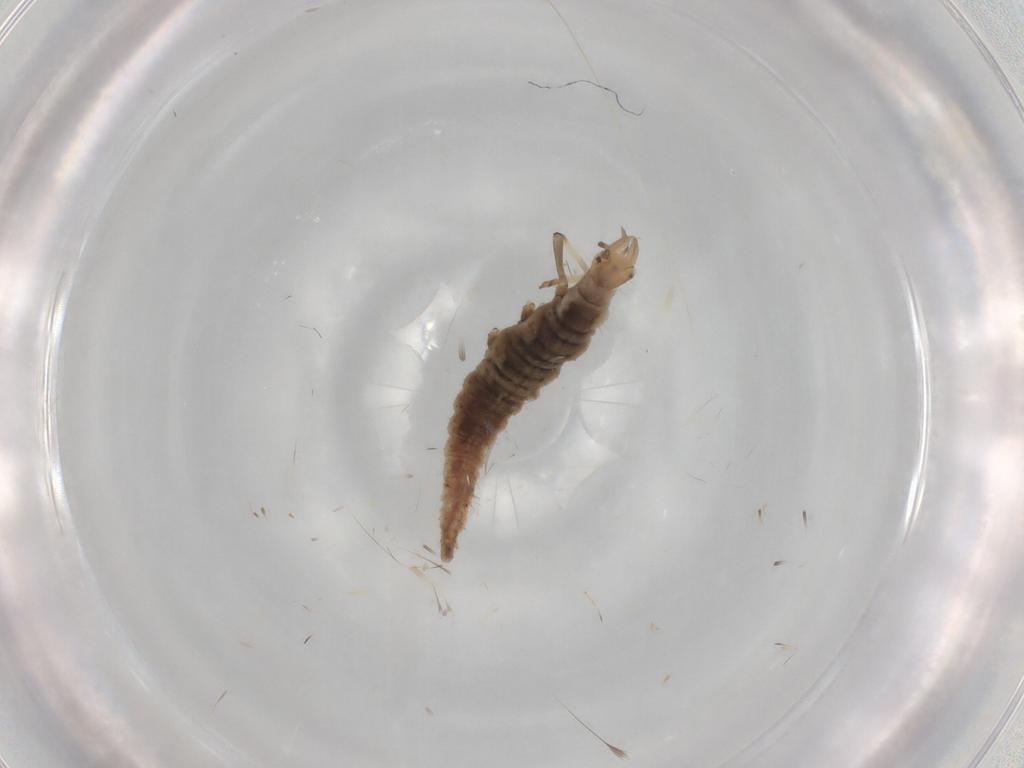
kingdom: Animalia
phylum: Arthropoda
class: Insecta
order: Neuroptera
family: Hemerobiidae
